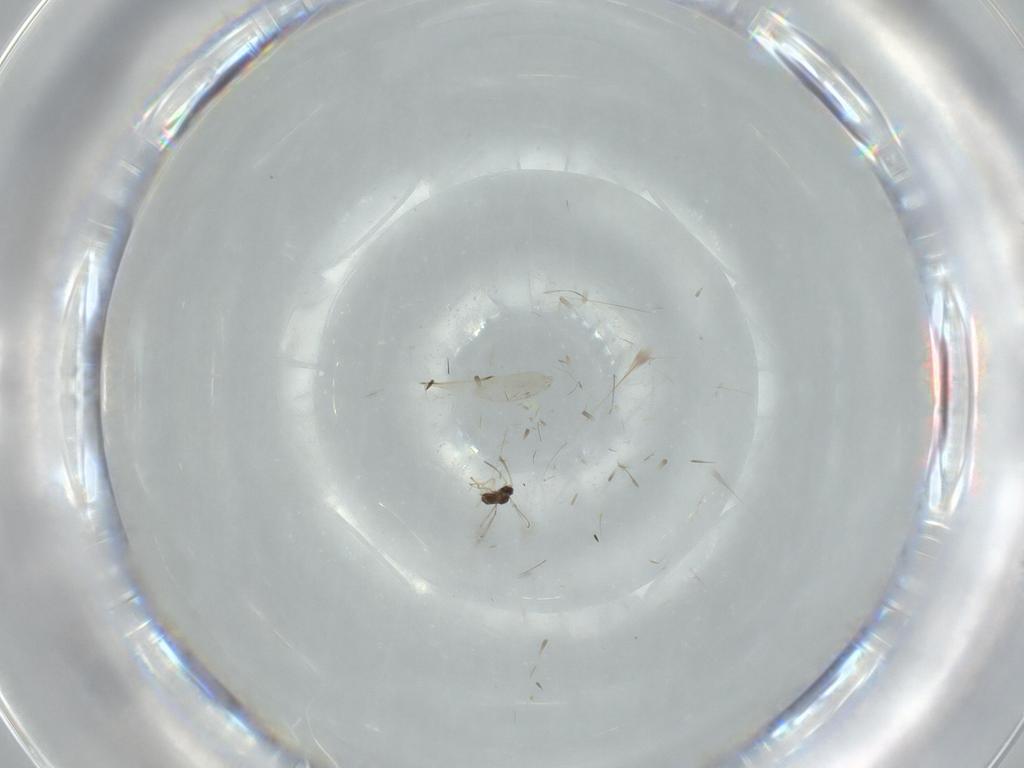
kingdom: Animalia
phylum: Arthropoda
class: Insecta
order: Hymenoptera
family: Scelionidae
